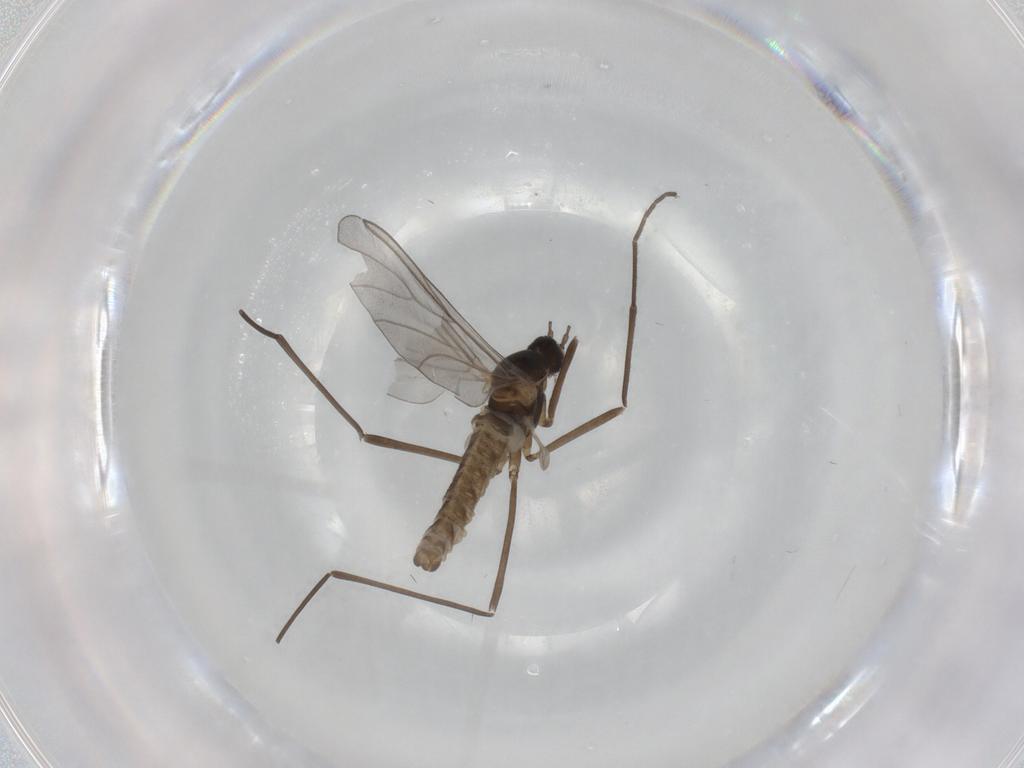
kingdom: Animalia
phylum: Arthropoda
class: Insecta
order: Diptera
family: Cecidomyiidae
